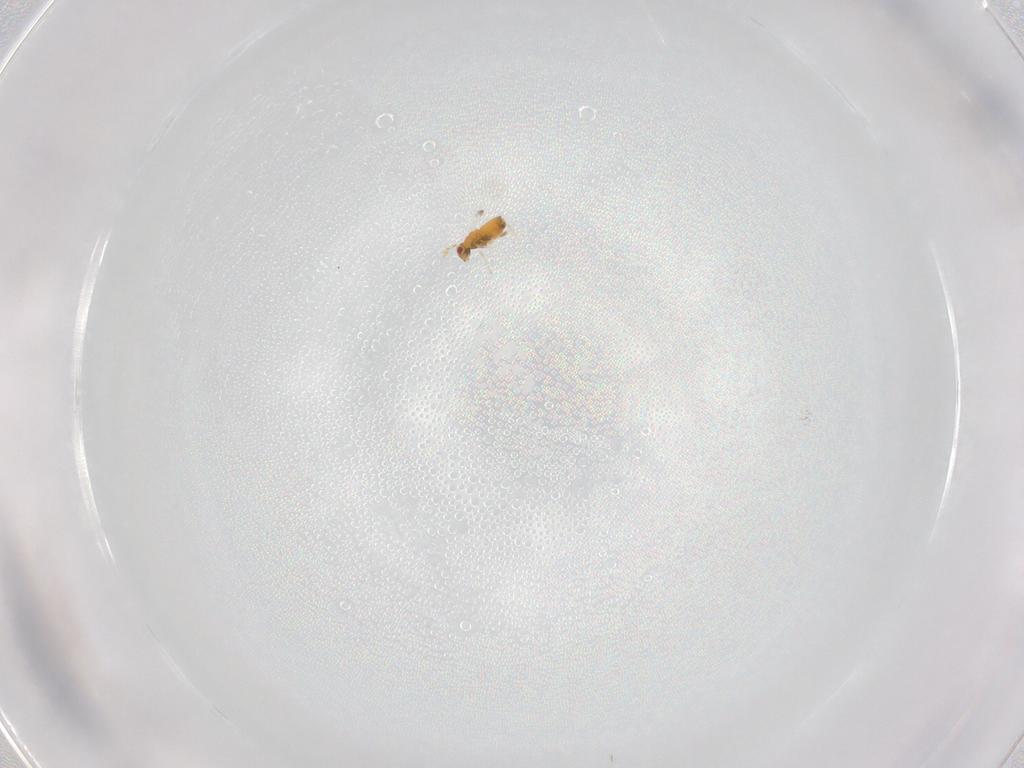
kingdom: Animalia
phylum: Arthropoda
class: Insecta
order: Hymenoptera
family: Trichogrammatidae
